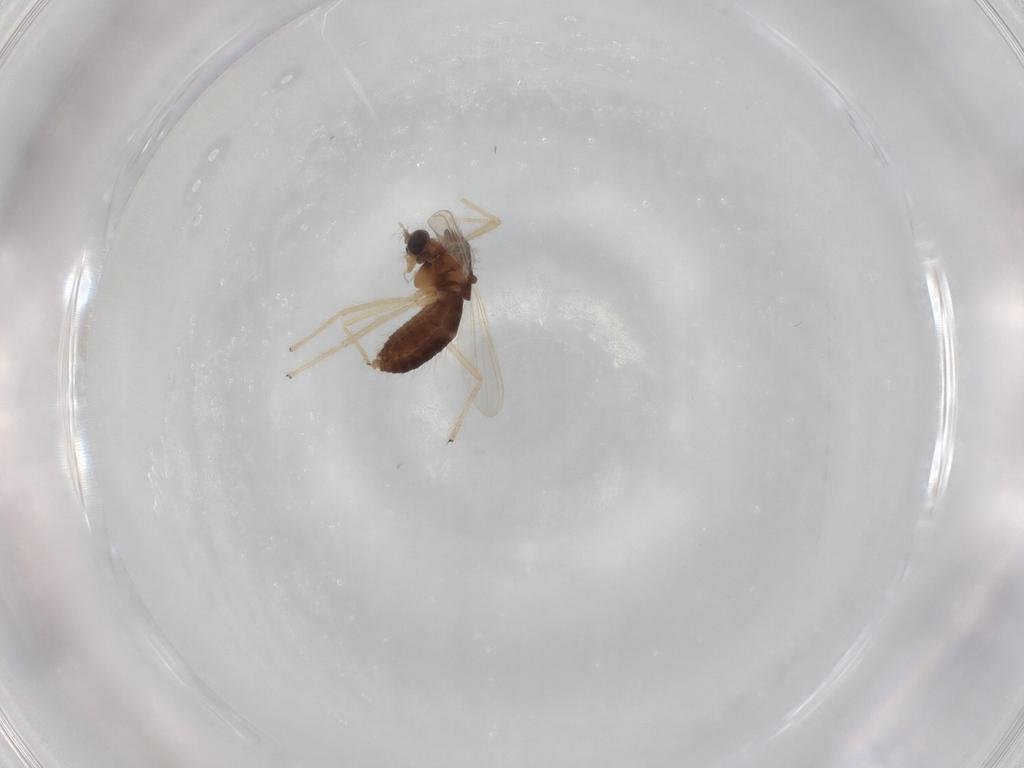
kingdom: Animalia
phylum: Arthropoda
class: Insecta
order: Diptera
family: Chironomidae
